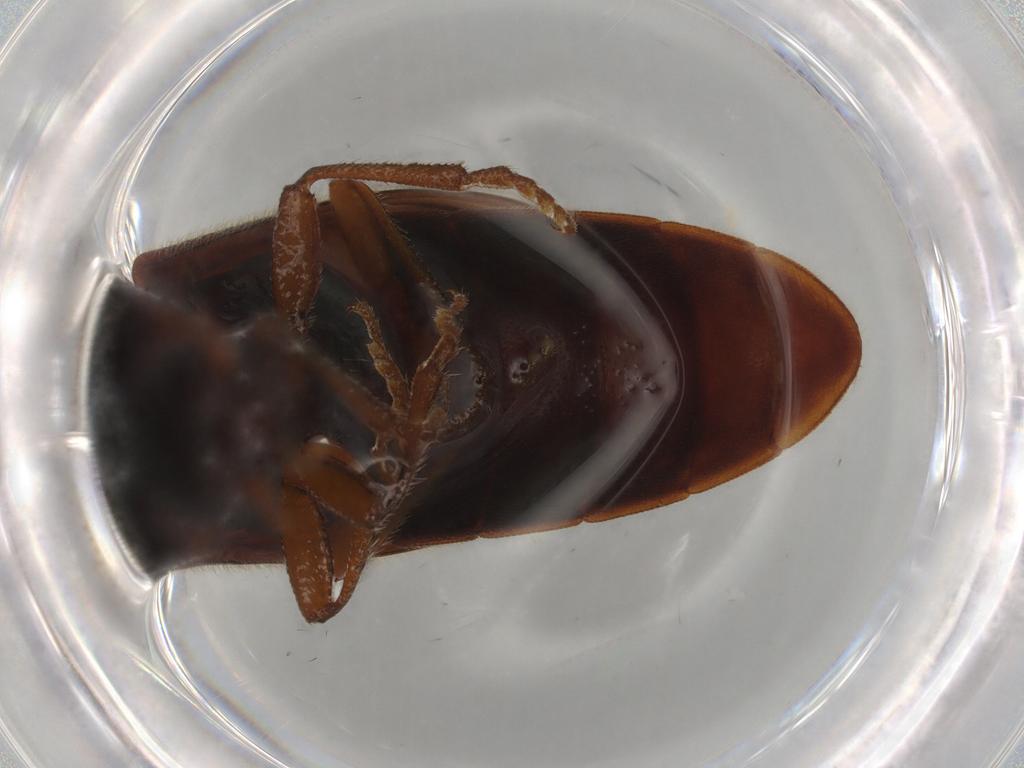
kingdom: Animalia
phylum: Arthropoda
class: Insecta
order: Coleoptera
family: Elateridae
